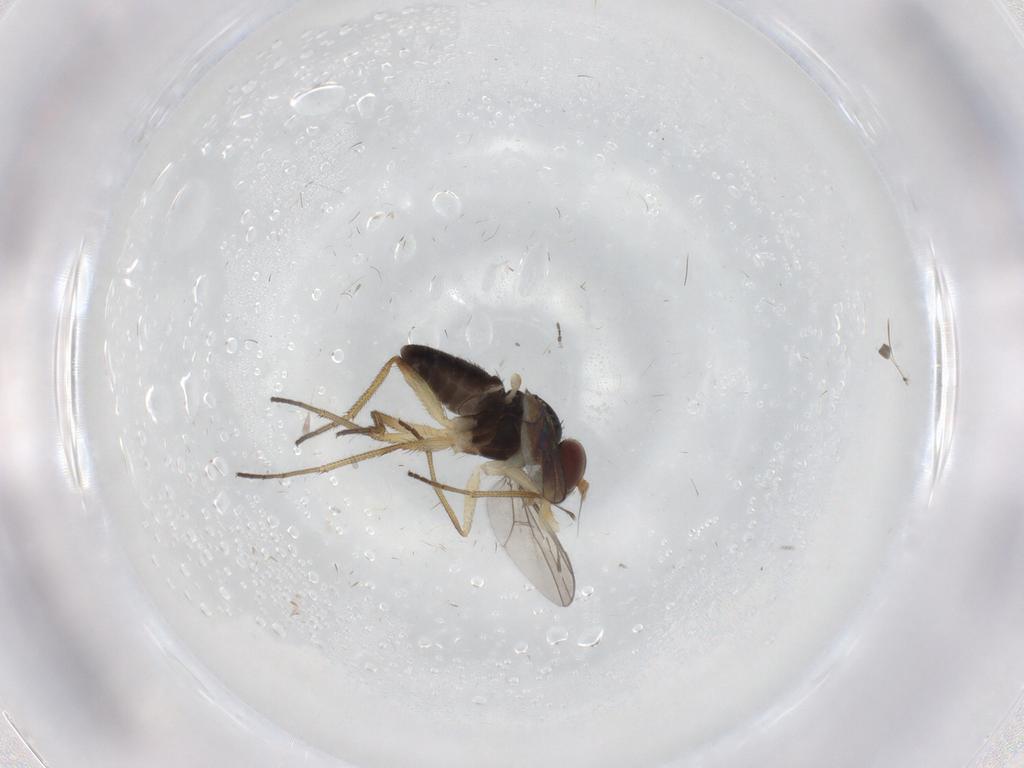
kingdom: Animalia
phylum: Arthropoda
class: Insecta
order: Diptera
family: Dolichopodidae
